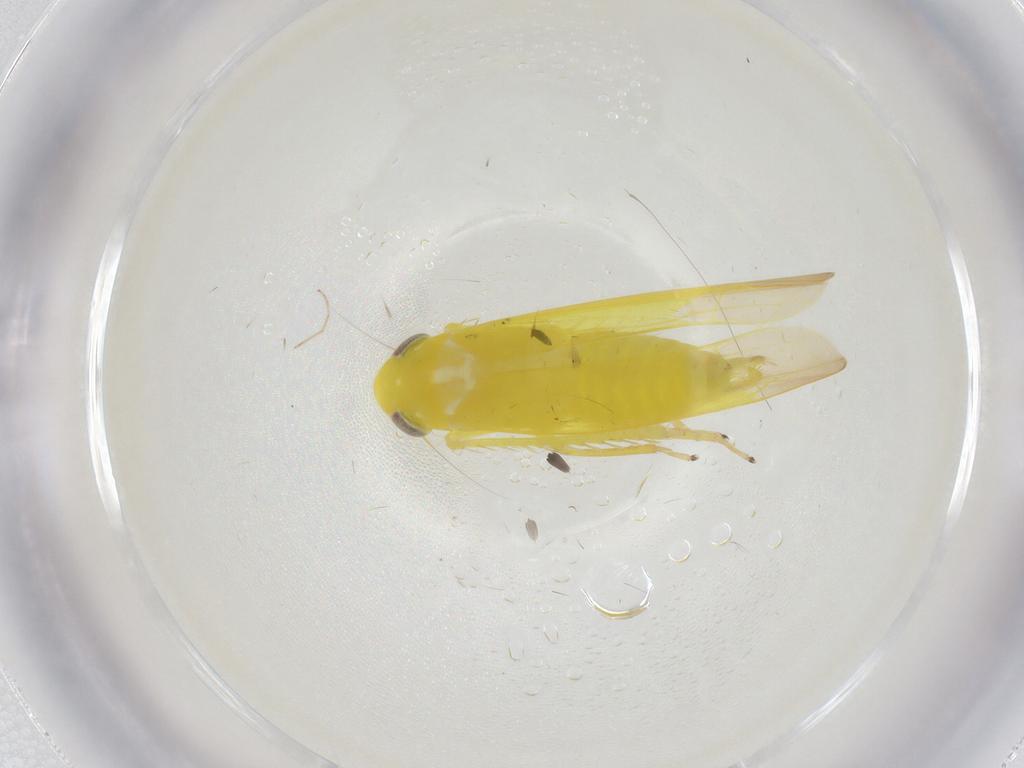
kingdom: Animalia
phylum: Arthropoda
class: Insecta
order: Hemiptera
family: Cicadellidae
